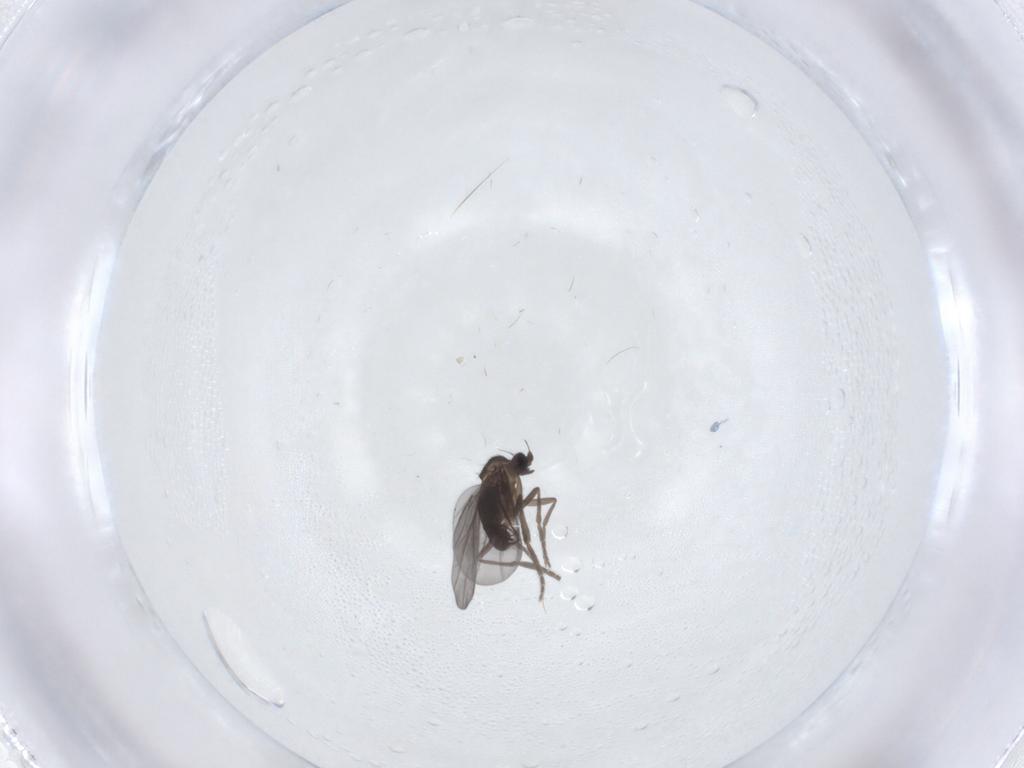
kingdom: Animalia
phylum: Arthropoda
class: Insecta
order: Diptera
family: Phoridae
